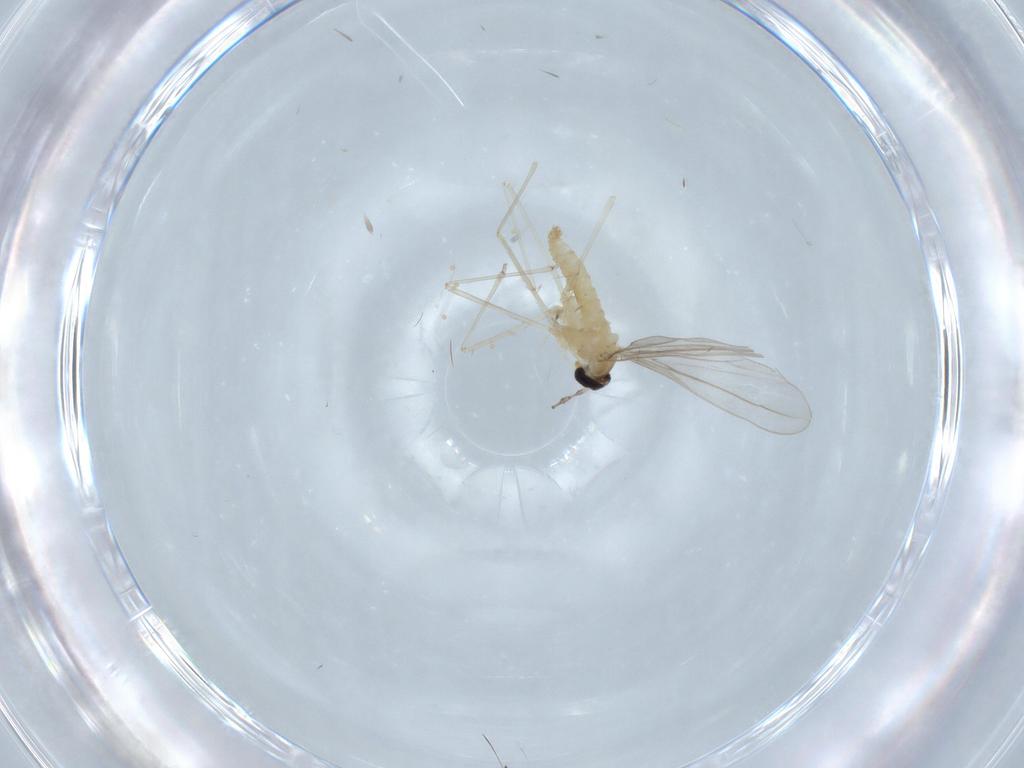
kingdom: Animalia
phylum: Arthropoda
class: Insecta
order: Diptera
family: Cecidomyiidae
